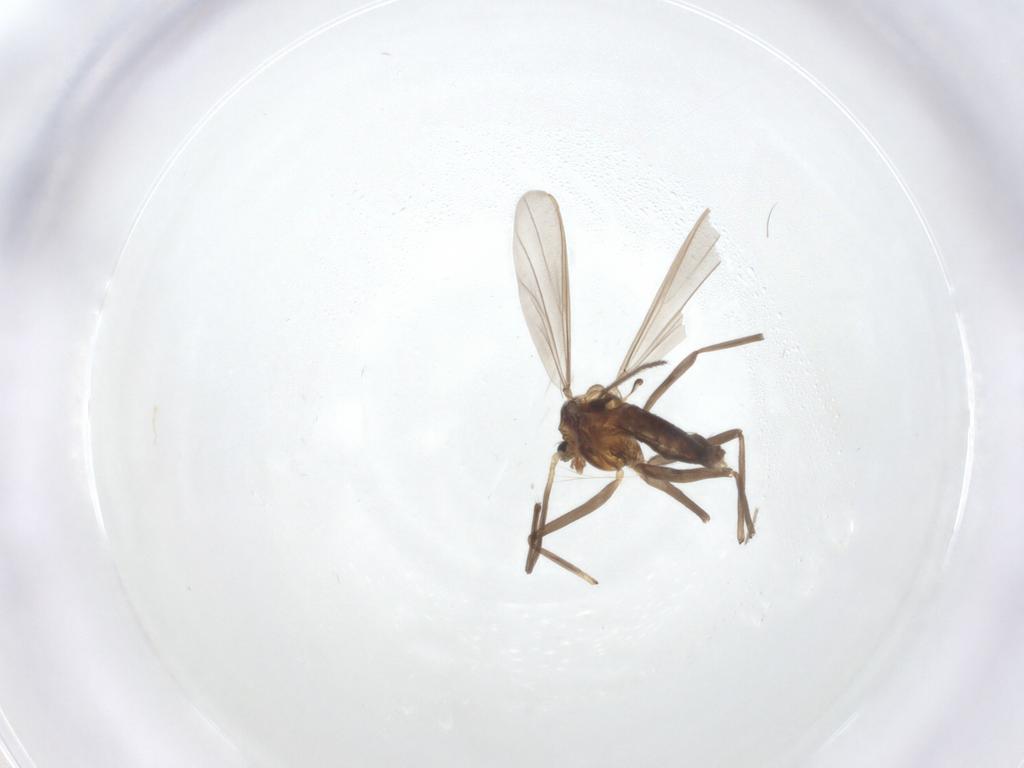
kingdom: Animalia
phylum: Arthropoda
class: Insecta
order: Diptera
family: Chironomidae
